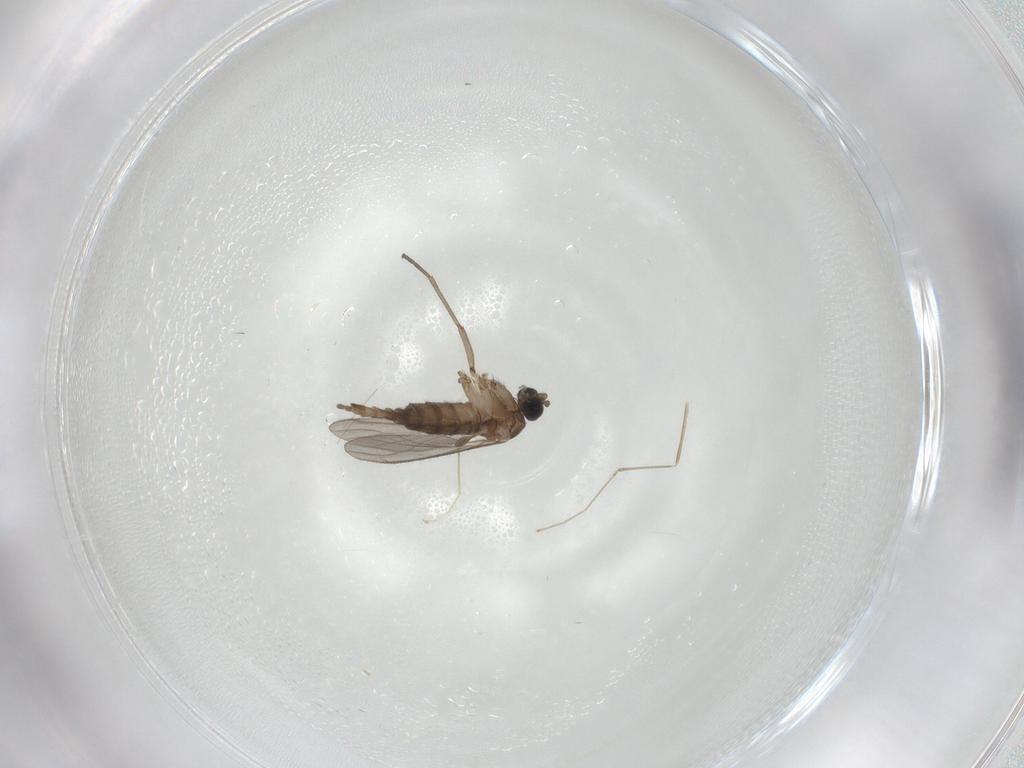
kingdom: Animalia
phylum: Arthropoda
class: Insecta
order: Diptera
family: Sciaridae
